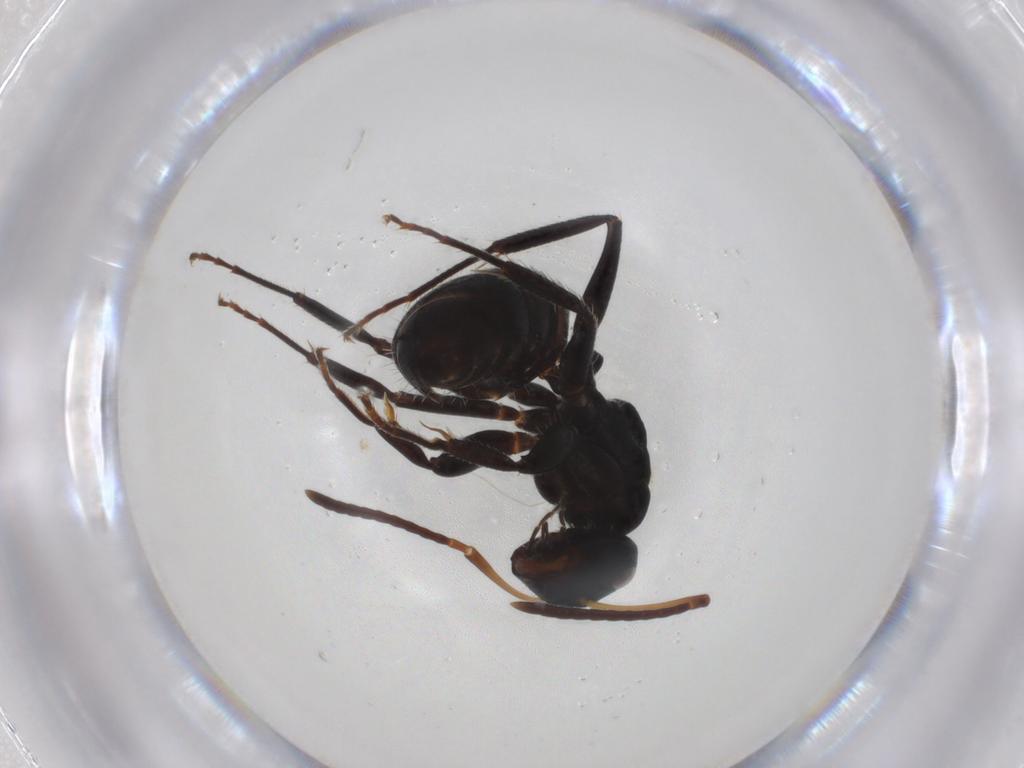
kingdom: Animalia
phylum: Arthropoda
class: Insecta
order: Hymenoptera
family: Formicidae
